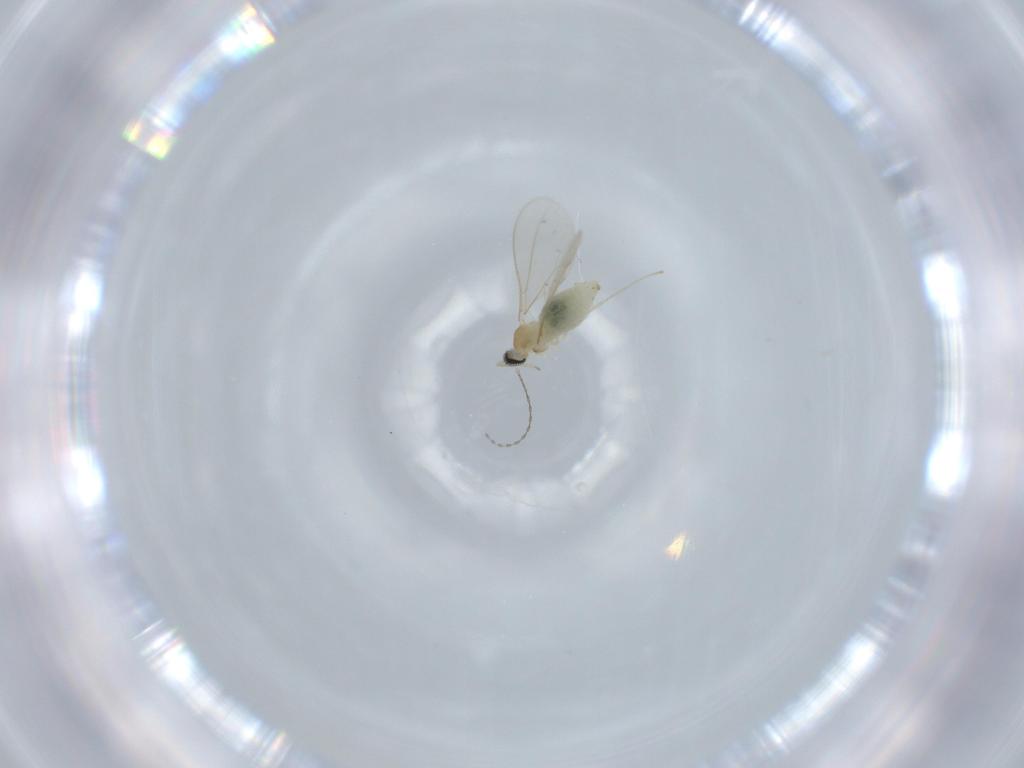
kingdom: Animalia
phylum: Arthropoda
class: Insecta
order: Diptera
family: Cecidomyiidae
